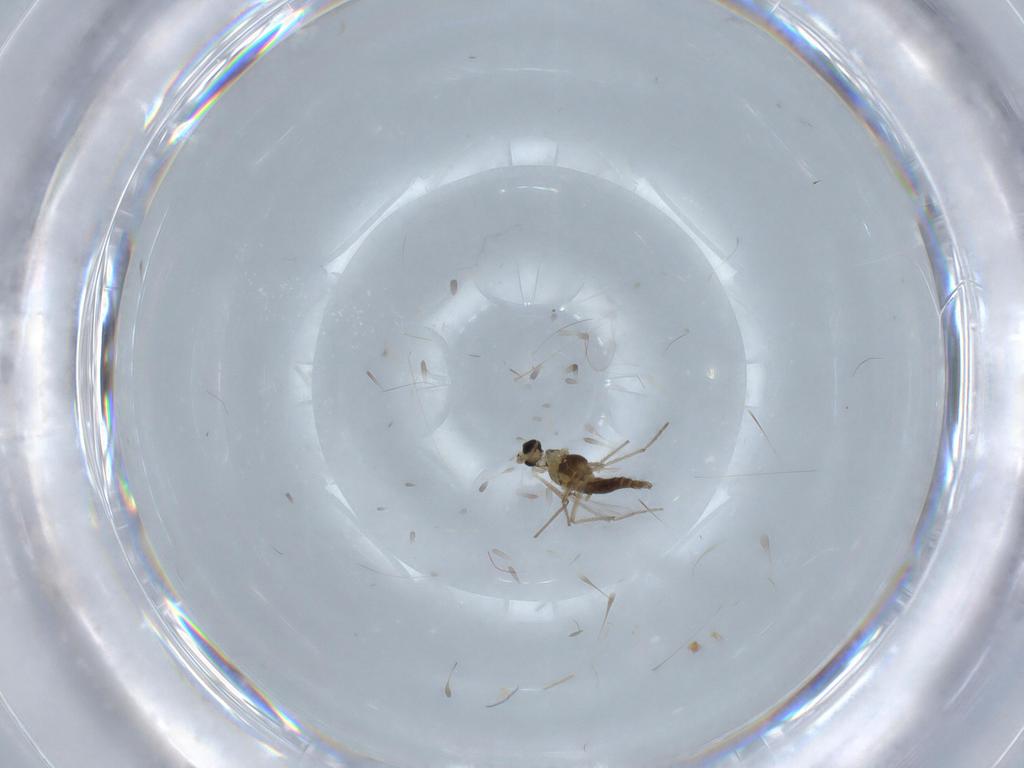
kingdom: Animalia
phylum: Arthropoda
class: Insecta
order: Diptera
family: Chironomidae
